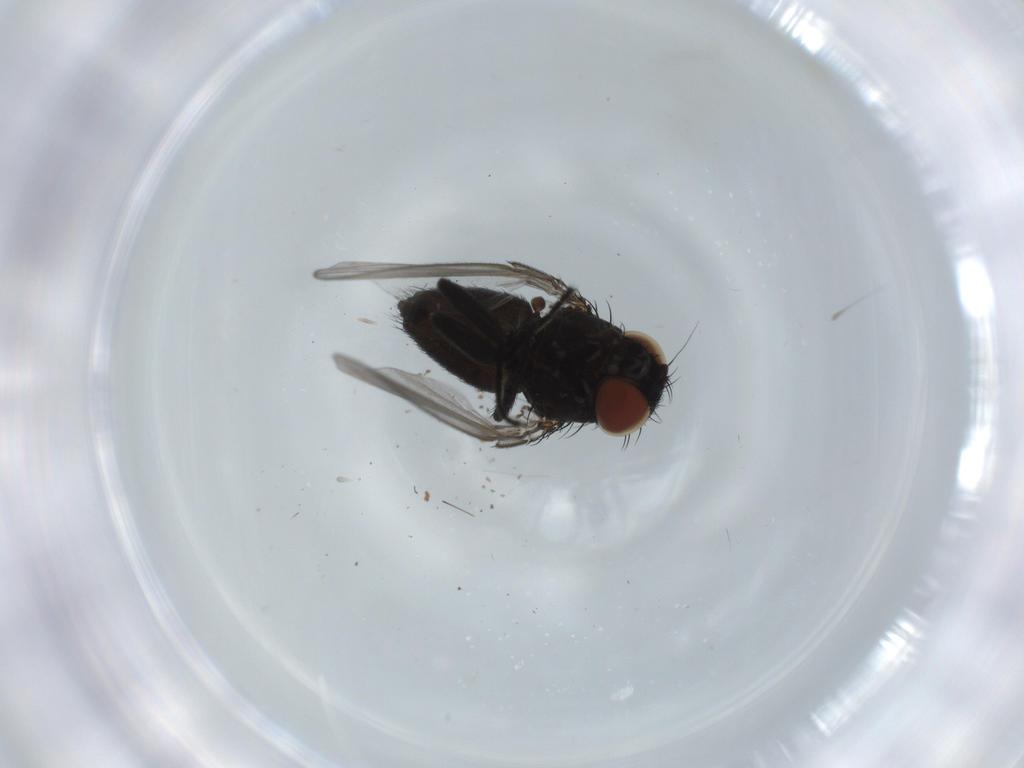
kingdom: Animalia
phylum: Arthropoda
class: Insecta
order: Diptera
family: Milichiidae
